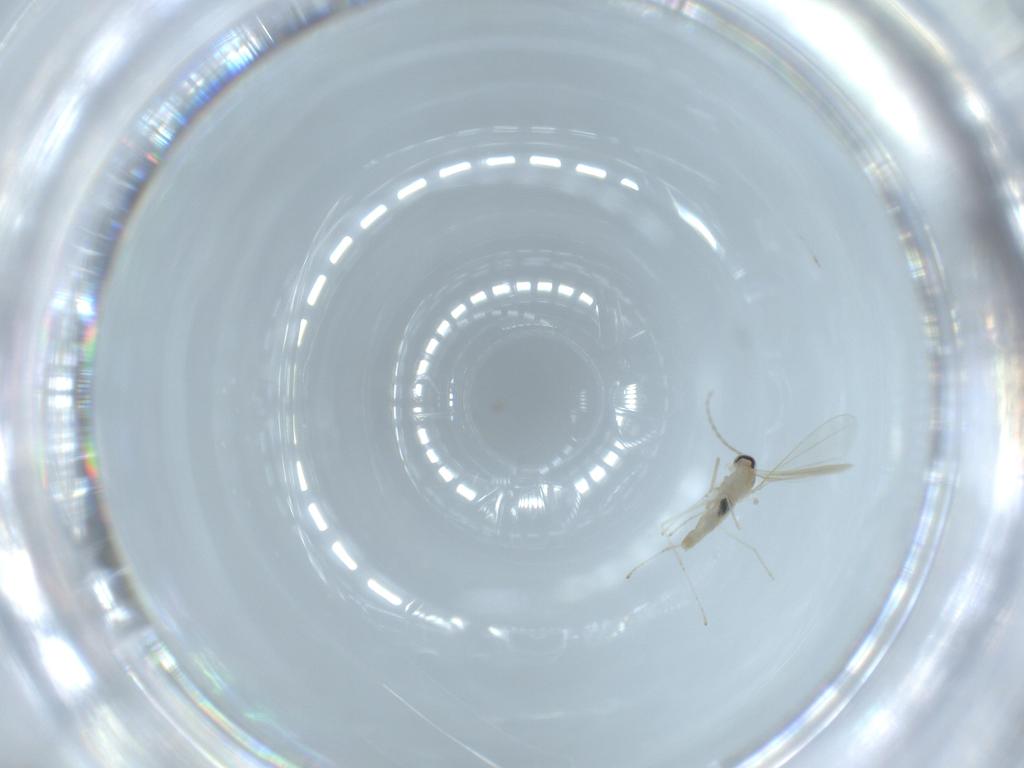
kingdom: Animalia
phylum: Arthropoda
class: Insecta
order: Diptera
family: Cecidomyiidae
